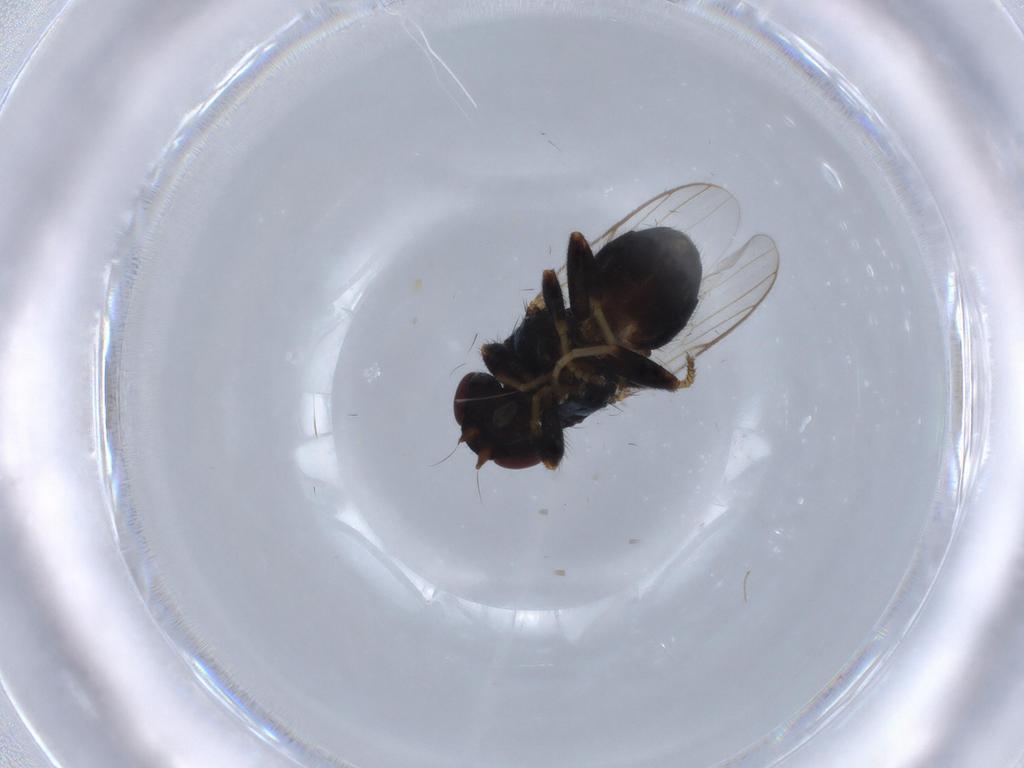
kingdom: Animalia
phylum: Arthropoda
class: Insecta
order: Diptera
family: Chloropidae
